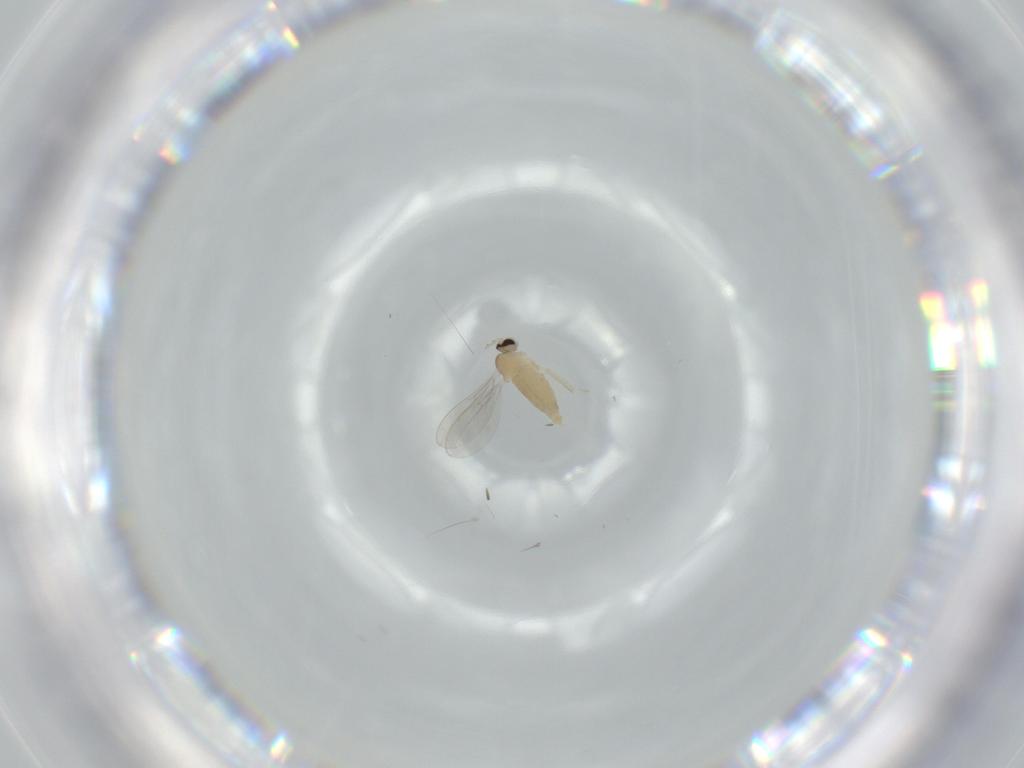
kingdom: Animalia
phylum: Arthropoda
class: Insecta
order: Diptera
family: Cecidomyiidae
